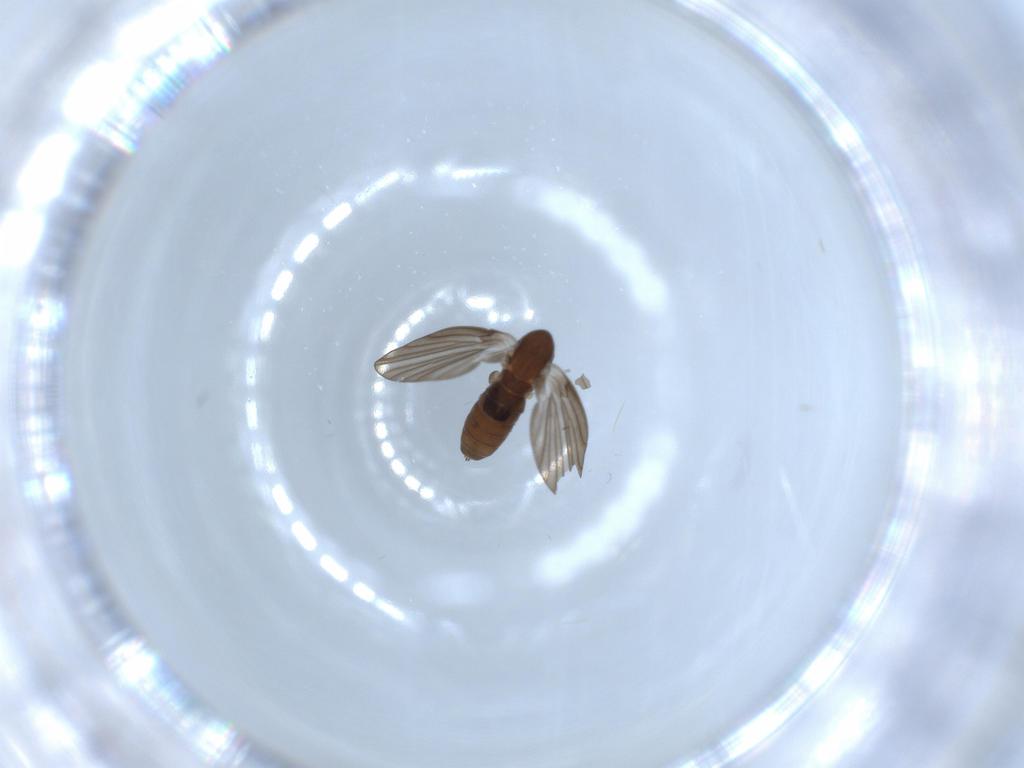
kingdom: Animalia
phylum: Arthropoda
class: Insecta
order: Diptera
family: Psychodidae
